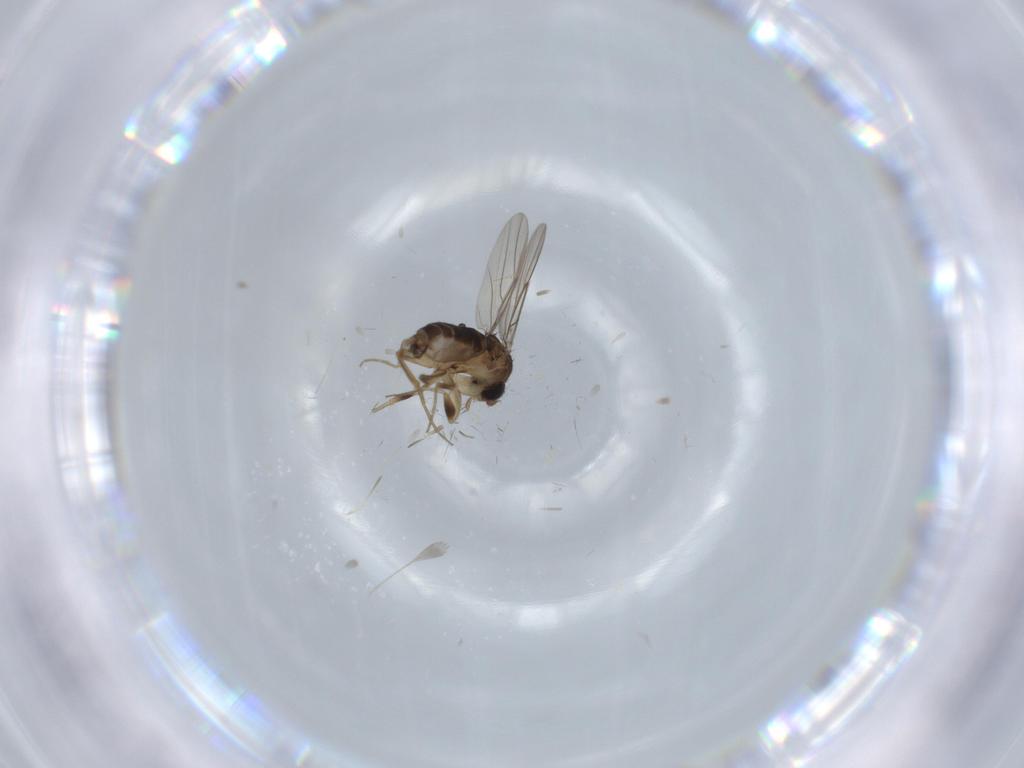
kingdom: Animalia
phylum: Arthropoda
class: Insecta
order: Diptera
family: Phoridae
